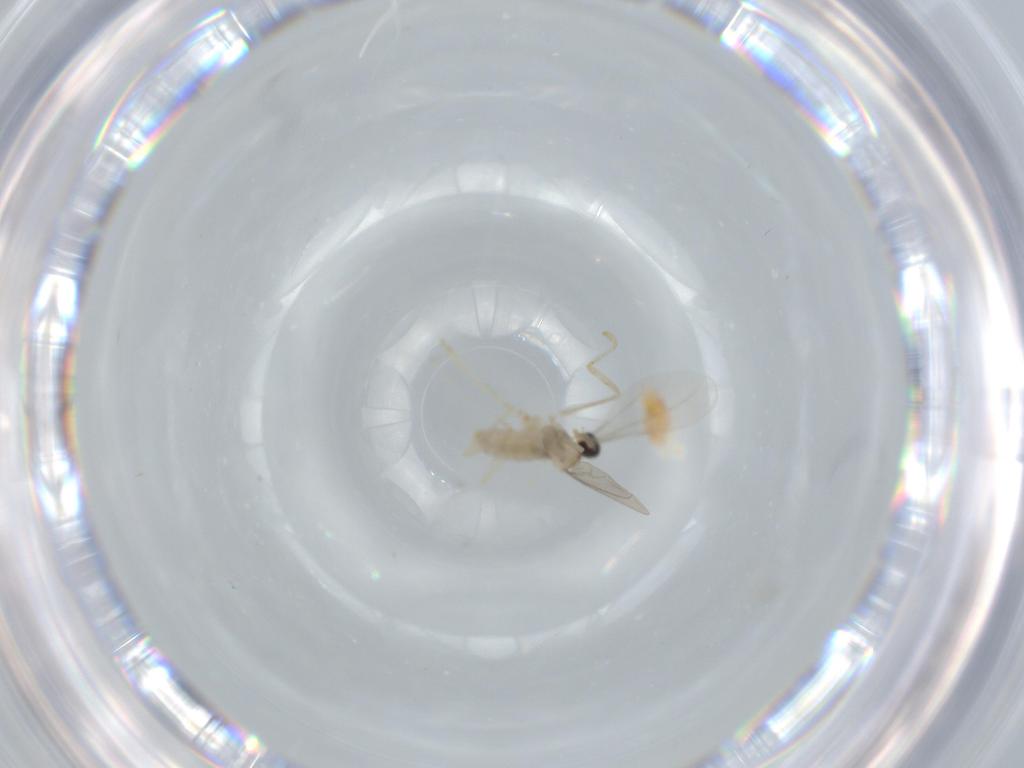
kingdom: Animalia
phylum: Arthropoda
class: Insecta
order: Diptera
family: Cecidomyiidae
